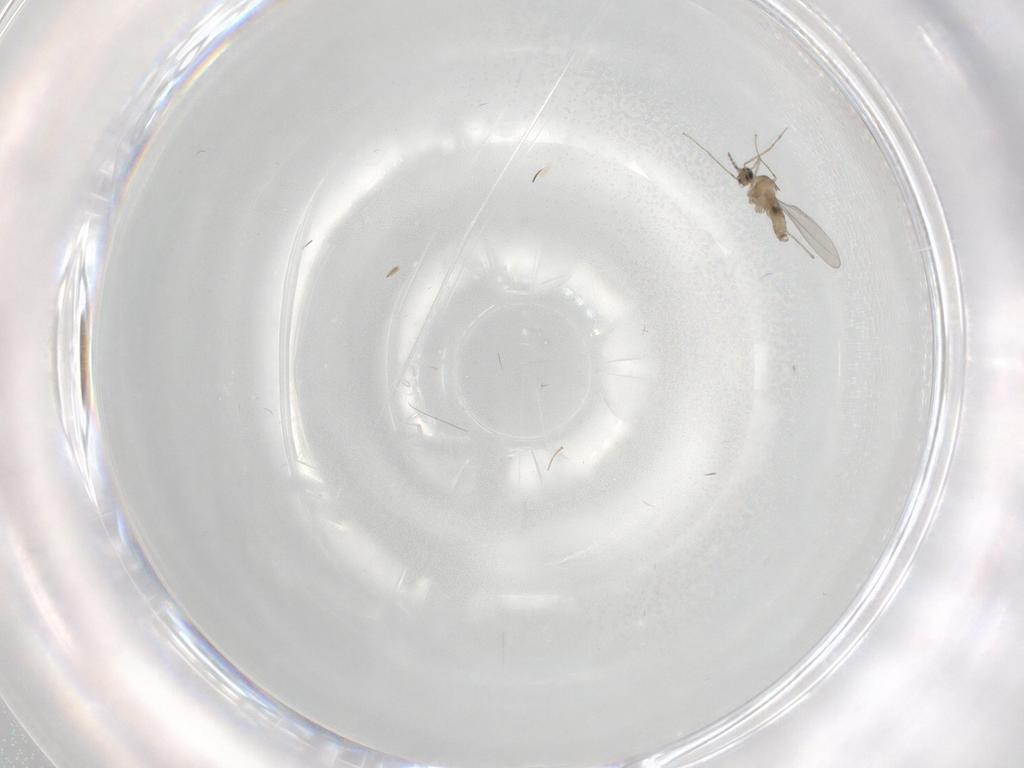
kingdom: Animalia
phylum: Arthropoda
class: Insecta
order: Diptera
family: Cecidomyiidae
